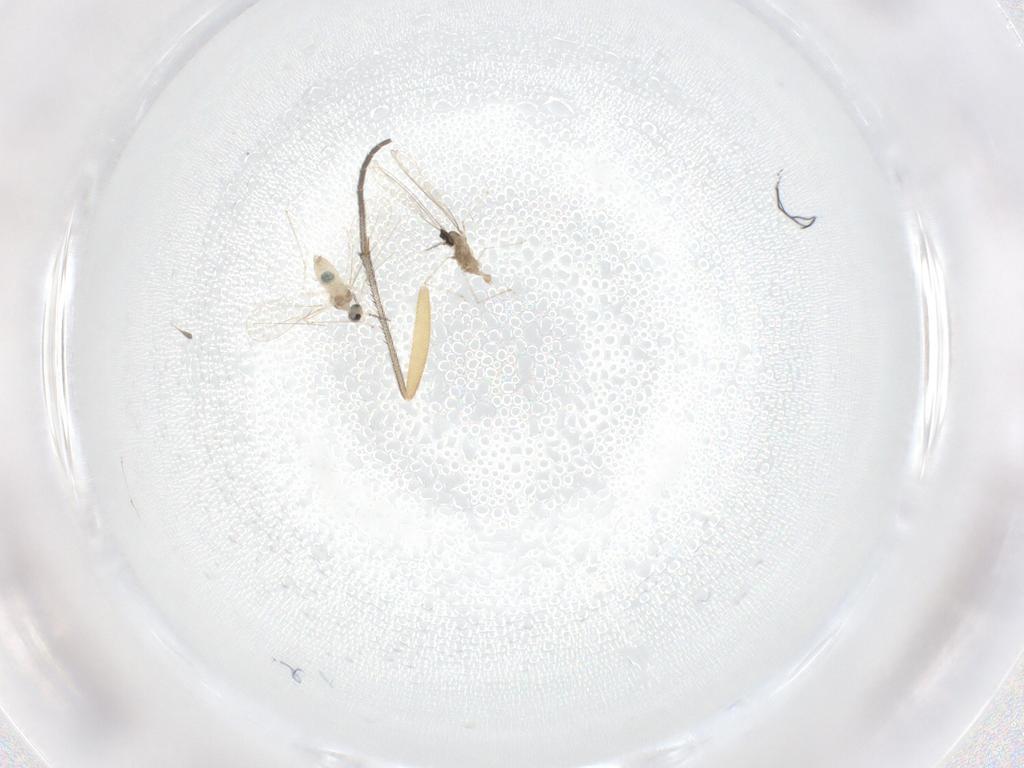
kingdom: Animalia
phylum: Arthropoda
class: Insecta
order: Diptera
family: Cecidomyiidae
